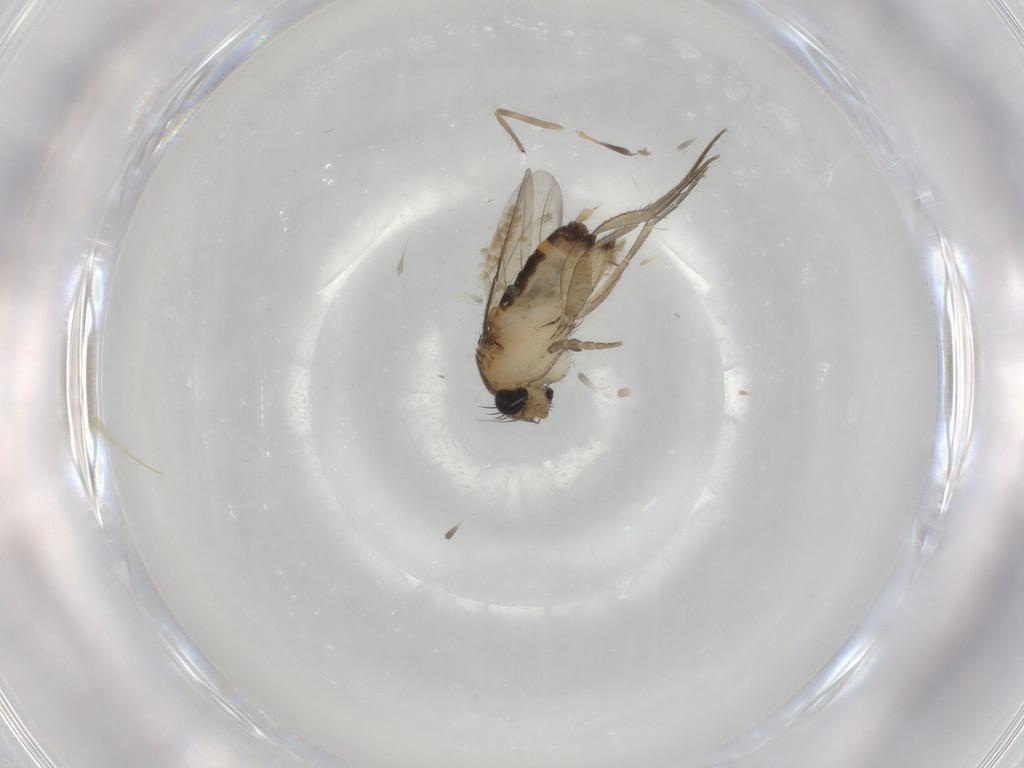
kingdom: Animalia
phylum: Arthropoda
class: Insecta
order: Diptera
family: Chironomidae
